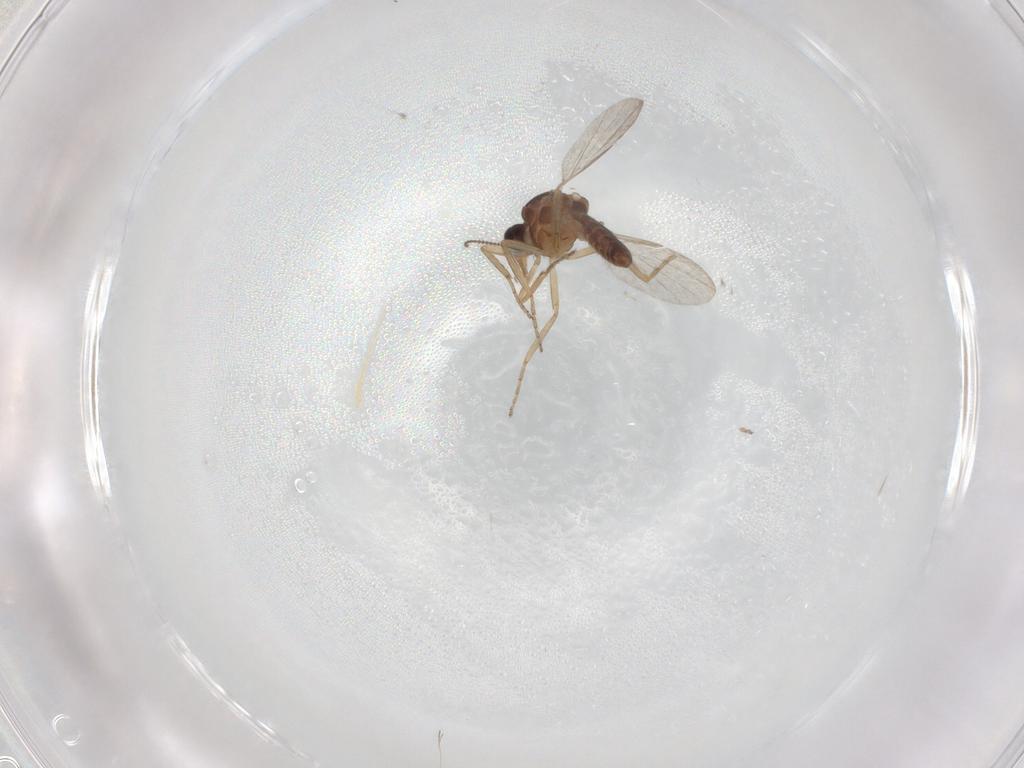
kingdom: Animalia
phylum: Arthropoda
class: Insecta
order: Diptera
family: Ceratopogonidae
